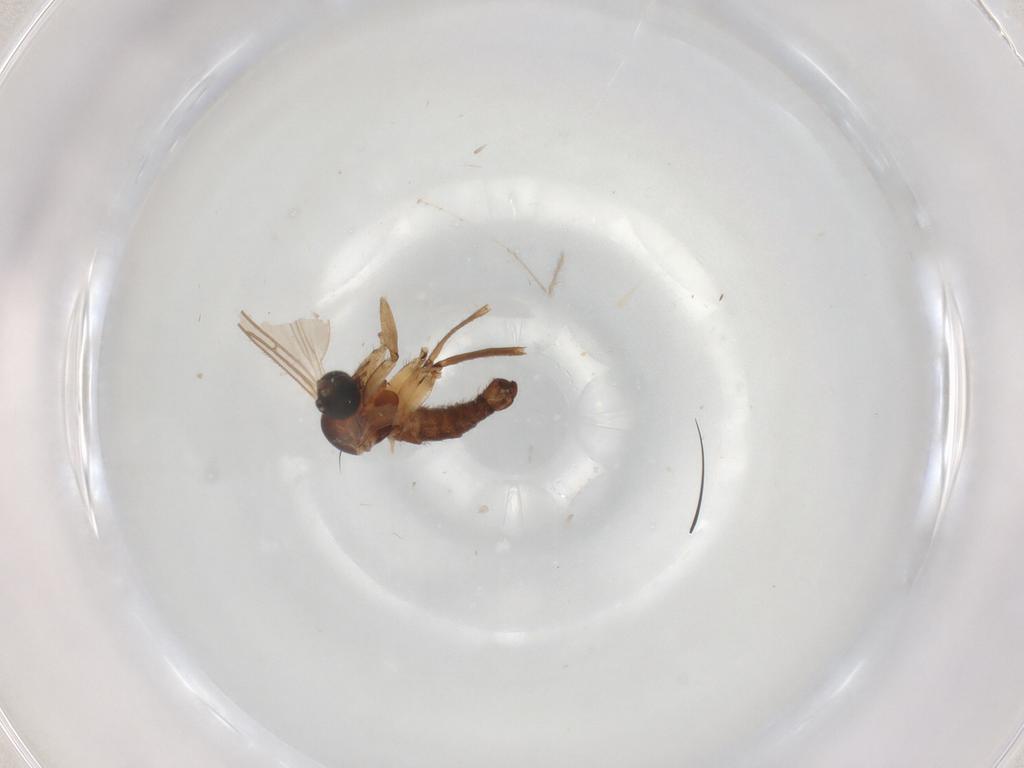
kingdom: Animalia
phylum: Arthropoda
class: Insecta
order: Diptera
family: Sciaridae
